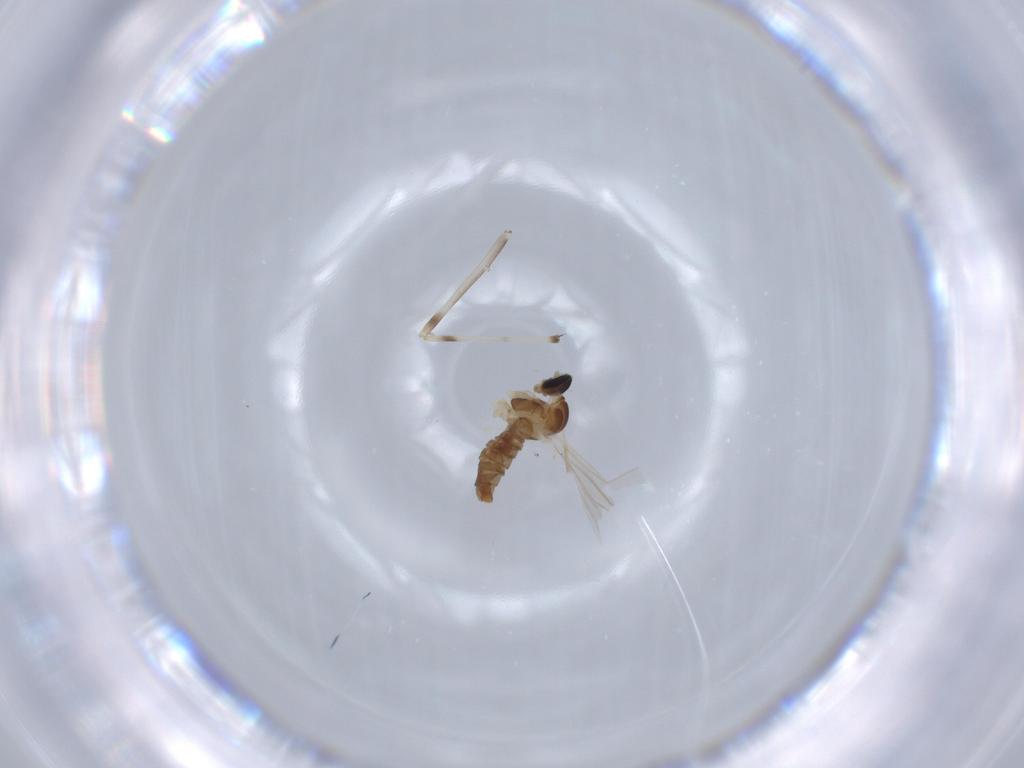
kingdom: Animalia
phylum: Arthropoda
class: Insecta
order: Diptera
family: Cecidomyiidae
